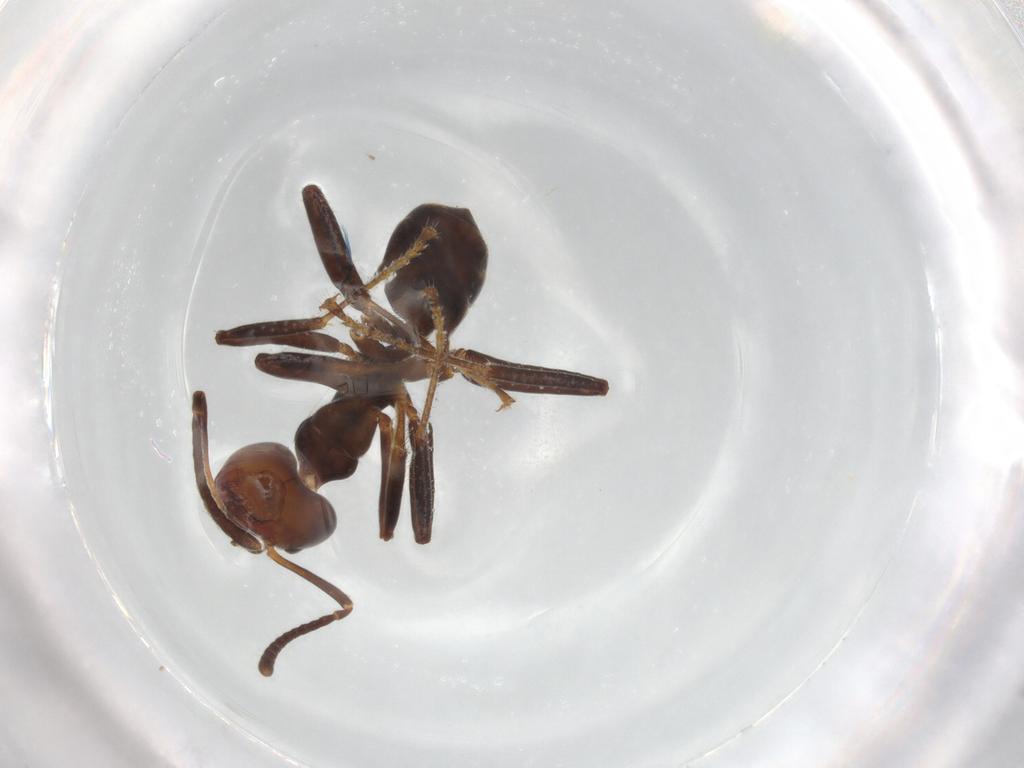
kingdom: Animalia
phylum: Arthropoda
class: Insecta
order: Hymenoptera
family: Formicidae
